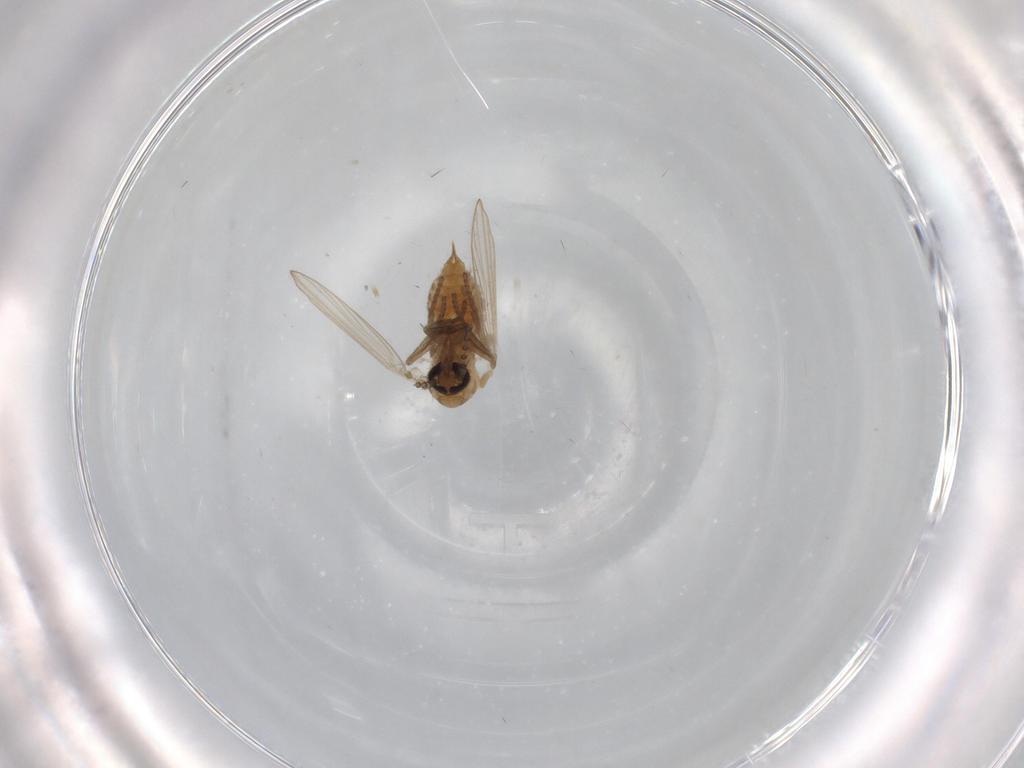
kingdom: Animalia
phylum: Arthropoda
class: Insecta
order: Diptera
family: Psychodidae
